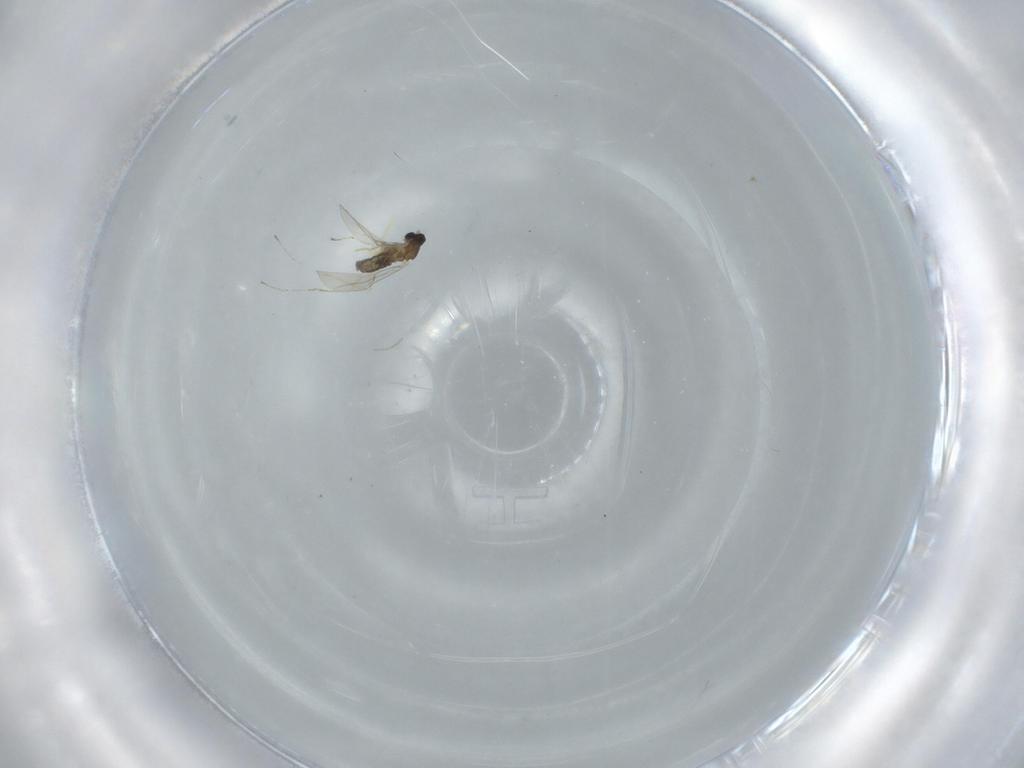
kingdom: Animalia
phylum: Arthropoda
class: Insecta
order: Diptera
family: Cecidomyiidae
